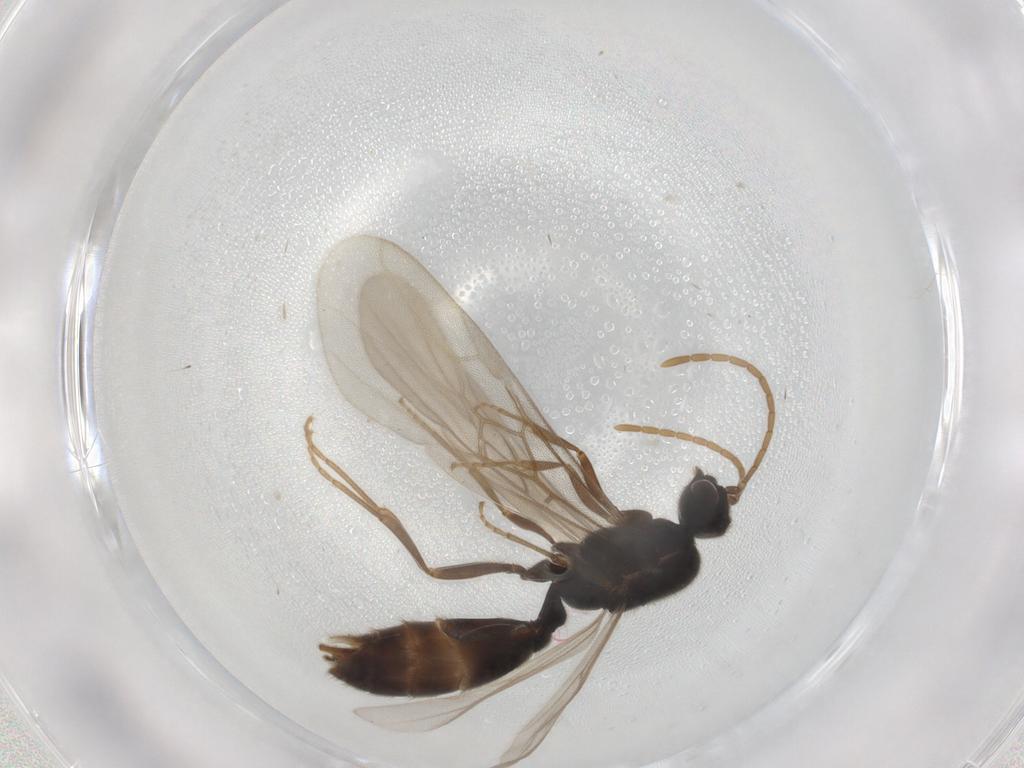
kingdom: Animalia
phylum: Arthropoda
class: Insecta
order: Hymenoptera
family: Formicidae
